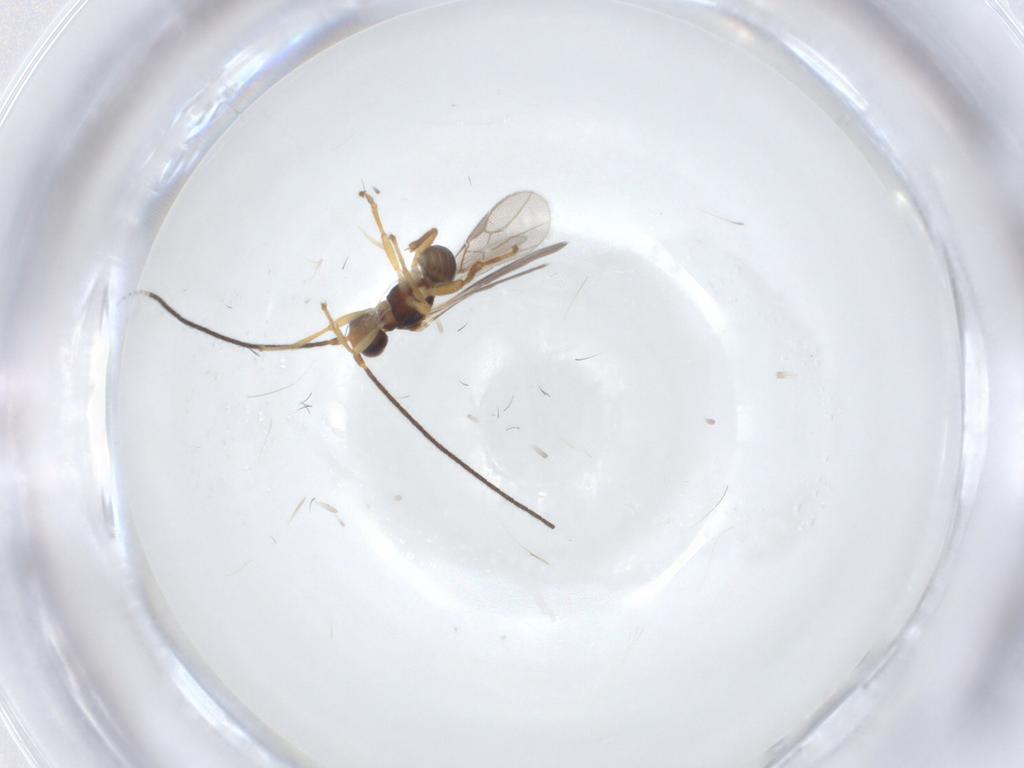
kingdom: Animalia
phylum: Arthropoda
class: Insecta
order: Hymenoptera
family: Braconidae
